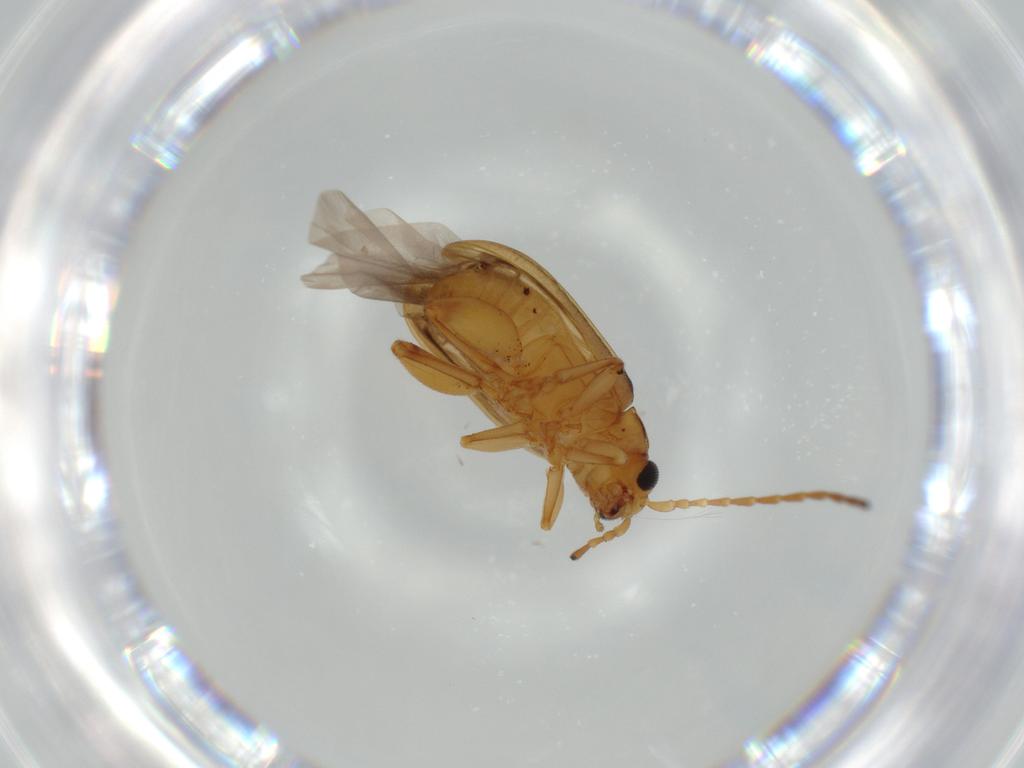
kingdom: Animalia
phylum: Arthropoda
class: Insecta
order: Coleoptera
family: Chrysomelidae
